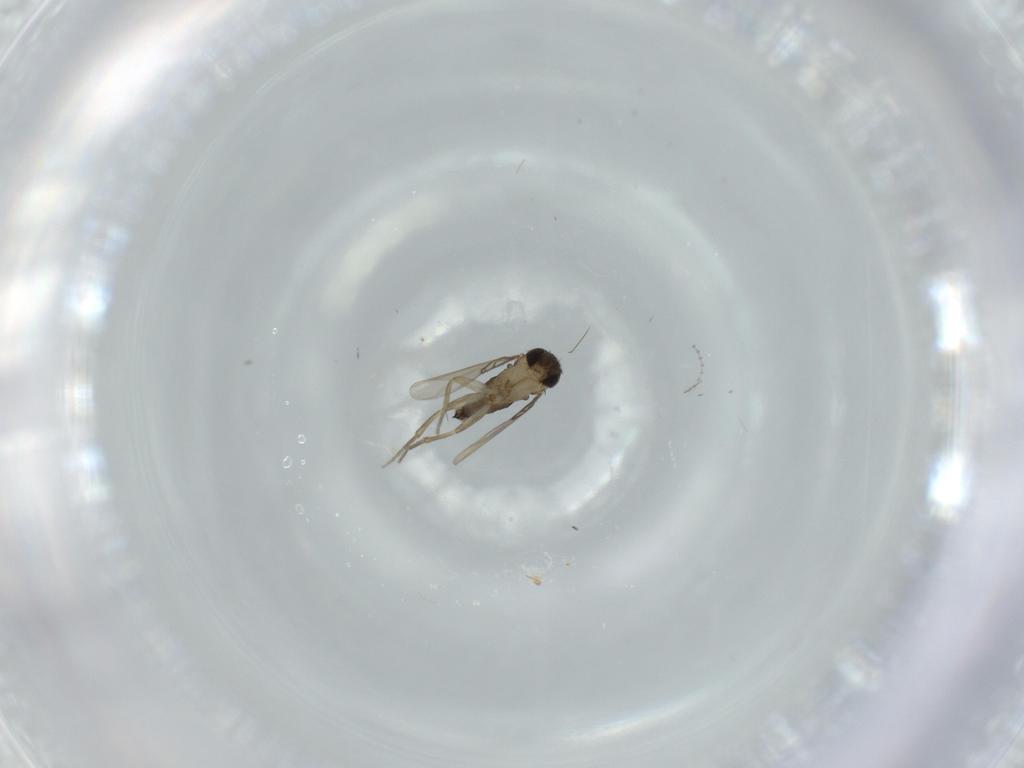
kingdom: Animalia
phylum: Arthropoda
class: Insecta
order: Diptera
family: Phoridae
